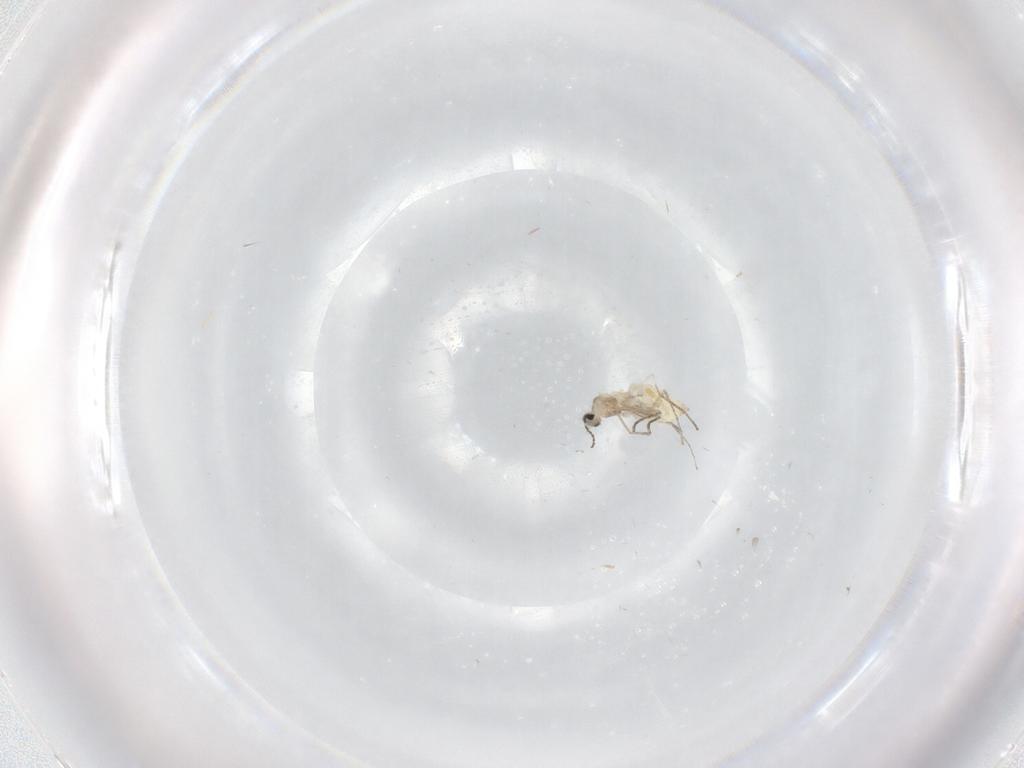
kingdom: Animalia
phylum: Arthropoda
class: Insecta
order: Diptera
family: Cecidomyiidae
